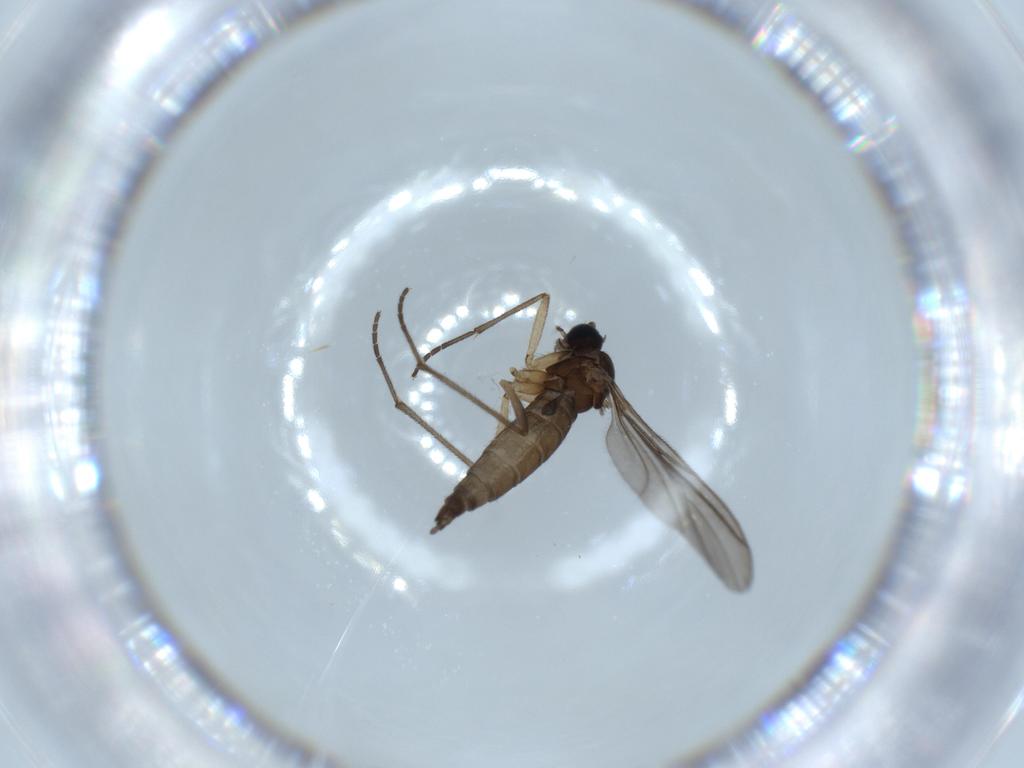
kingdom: Animalia
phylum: Arthropoda
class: Insecta
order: Diptera
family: Sciaridae
